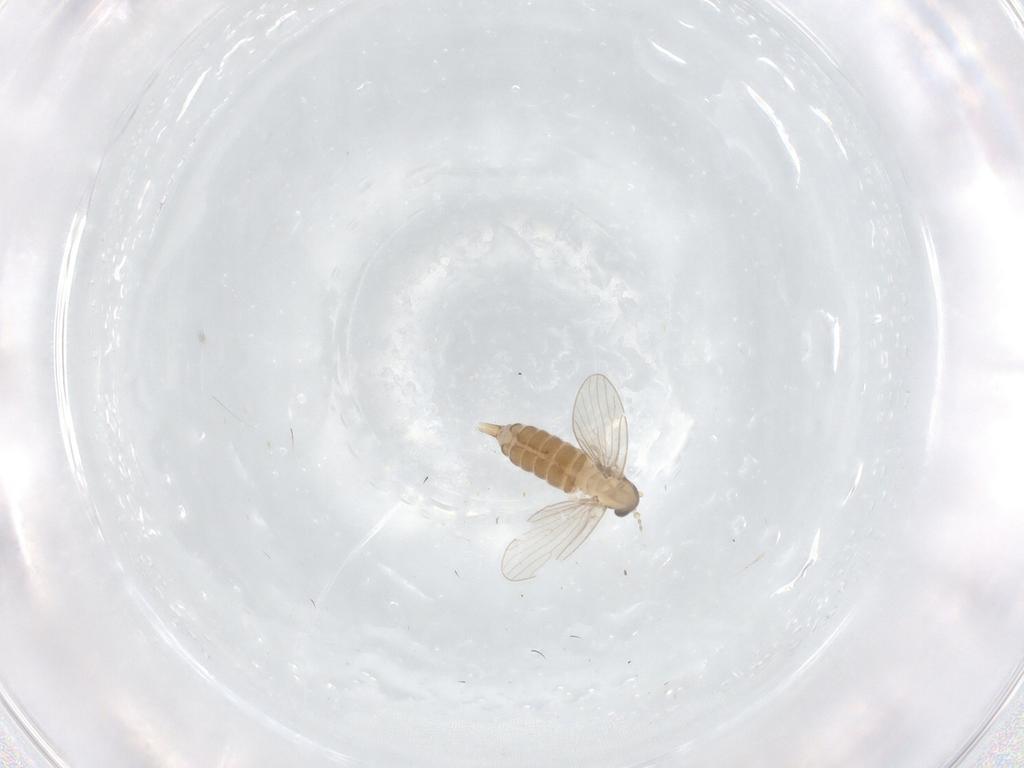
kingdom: Animalia
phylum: Arthropoda
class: Insecta
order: Diptera
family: Psychodidae
